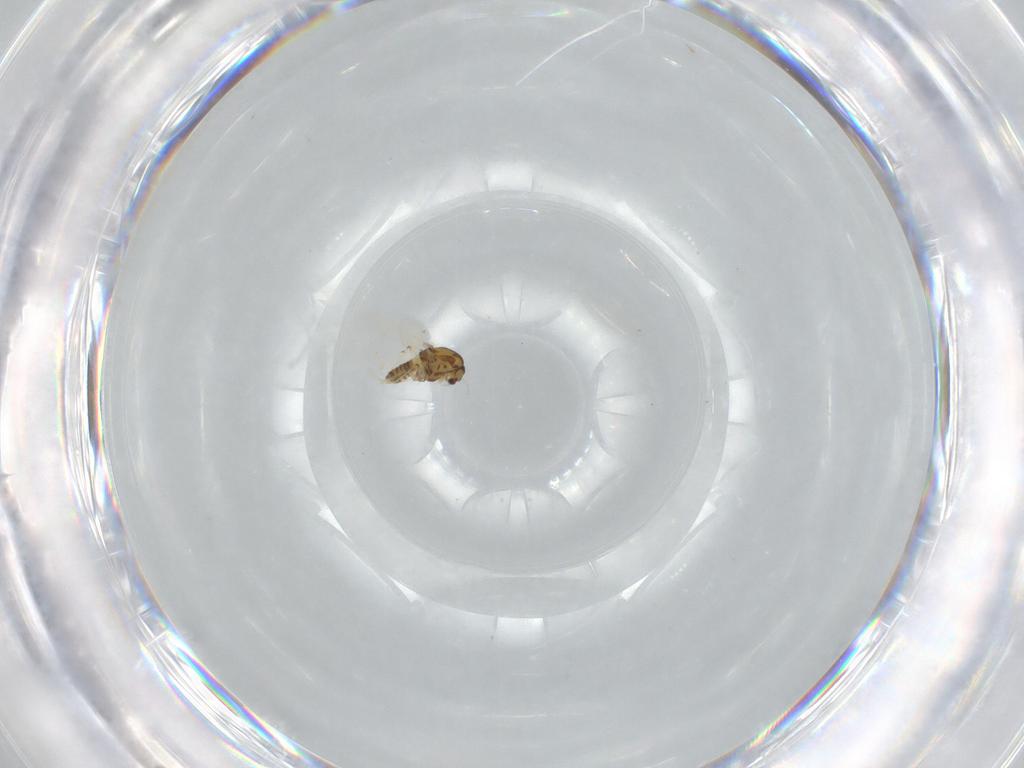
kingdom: Animalia
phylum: Arthropoda
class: Insecta
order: Diptera
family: Chironomidae
